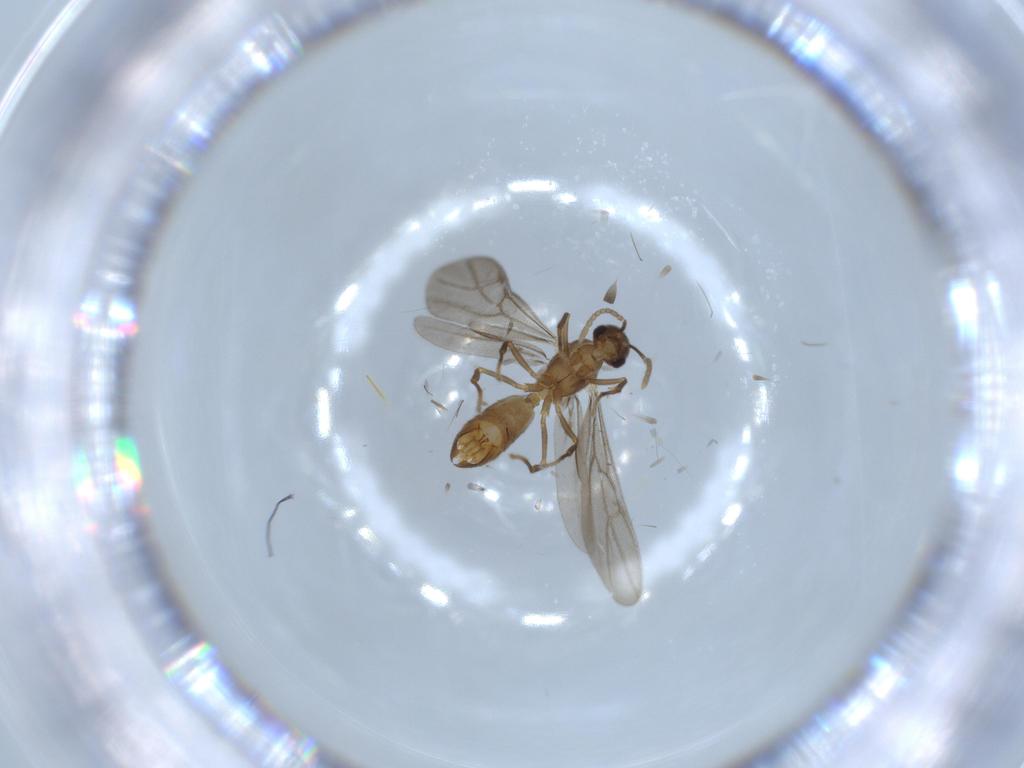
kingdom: Animalia
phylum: Arthropoda
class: Insecta
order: Hymenoptera
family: Formicidae
